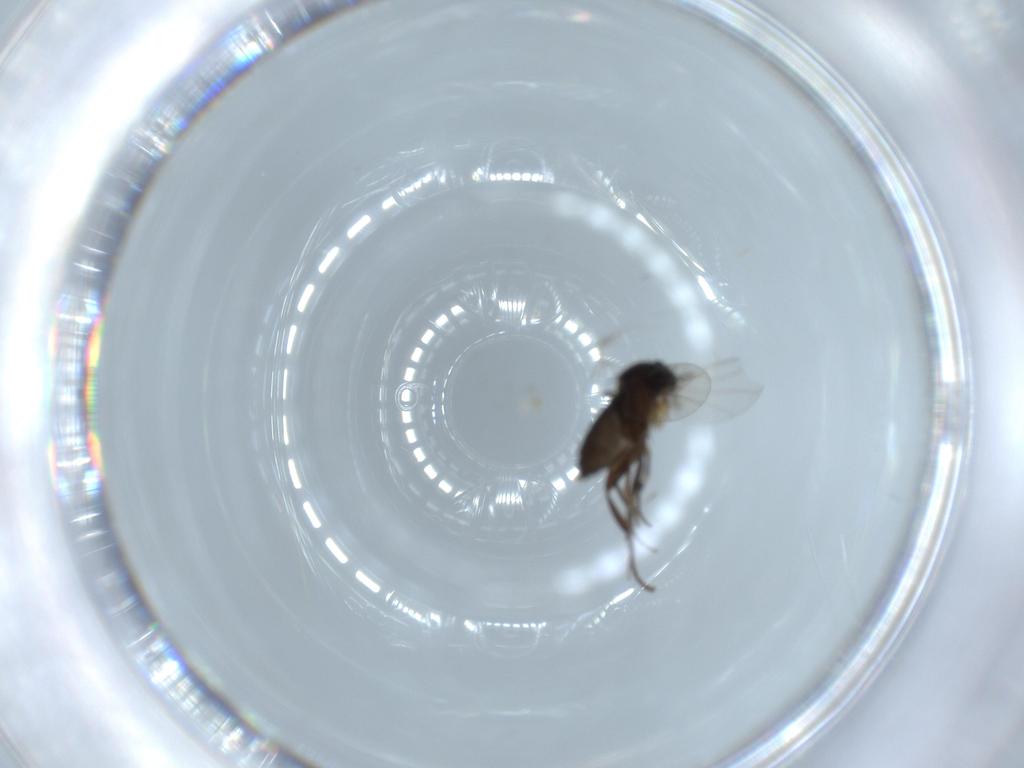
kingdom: Animalia
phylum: Arthropoda
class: Insecta
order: Diptera
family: Phoridae
